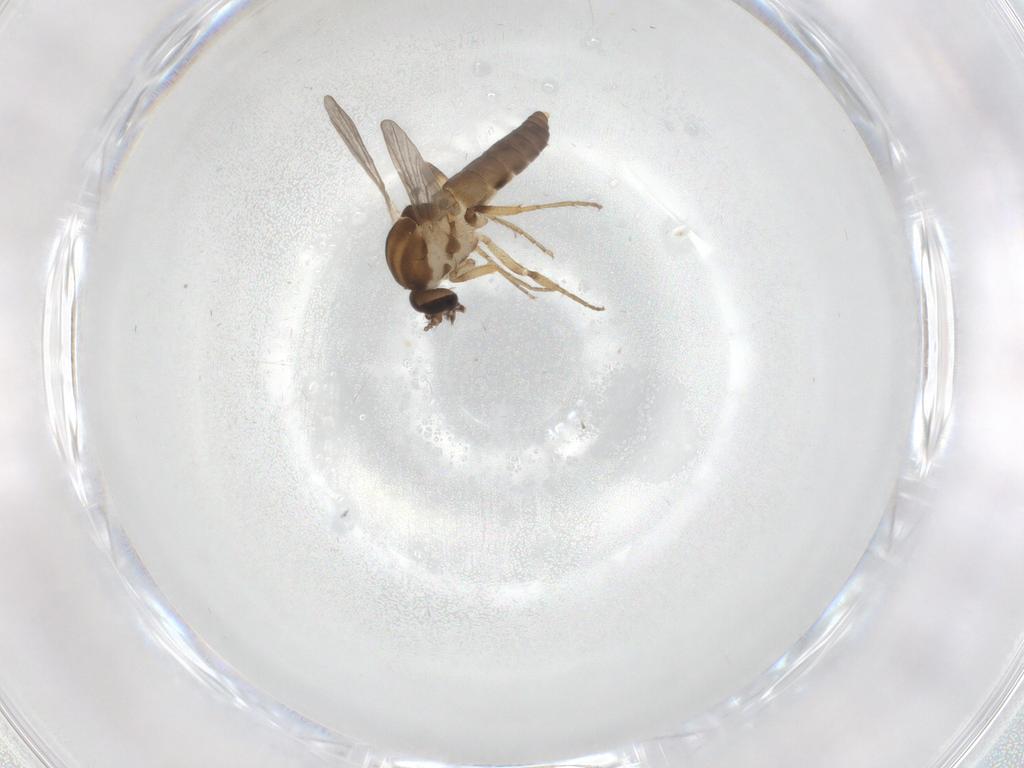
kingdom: Animalia
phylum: Arthropoda
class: Insecta
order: Diptera
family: Ceratopogonidae
